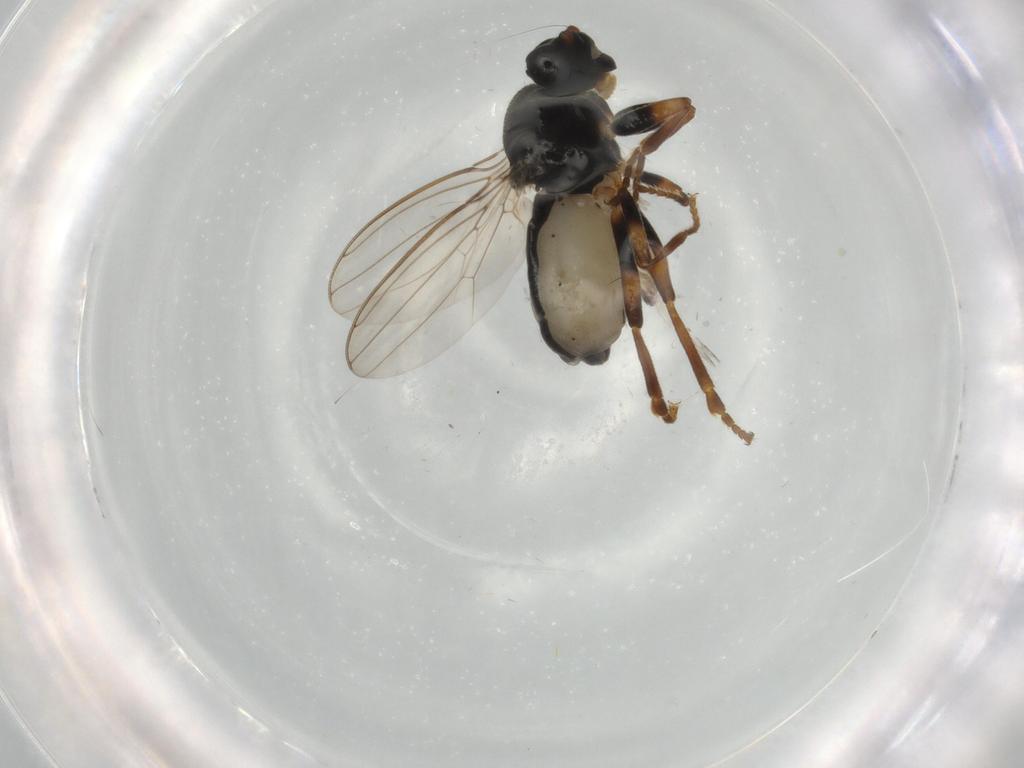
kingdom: Animalia
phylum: Arthropoda
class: Insecta
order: Diptera
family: Sphaeroceridae
